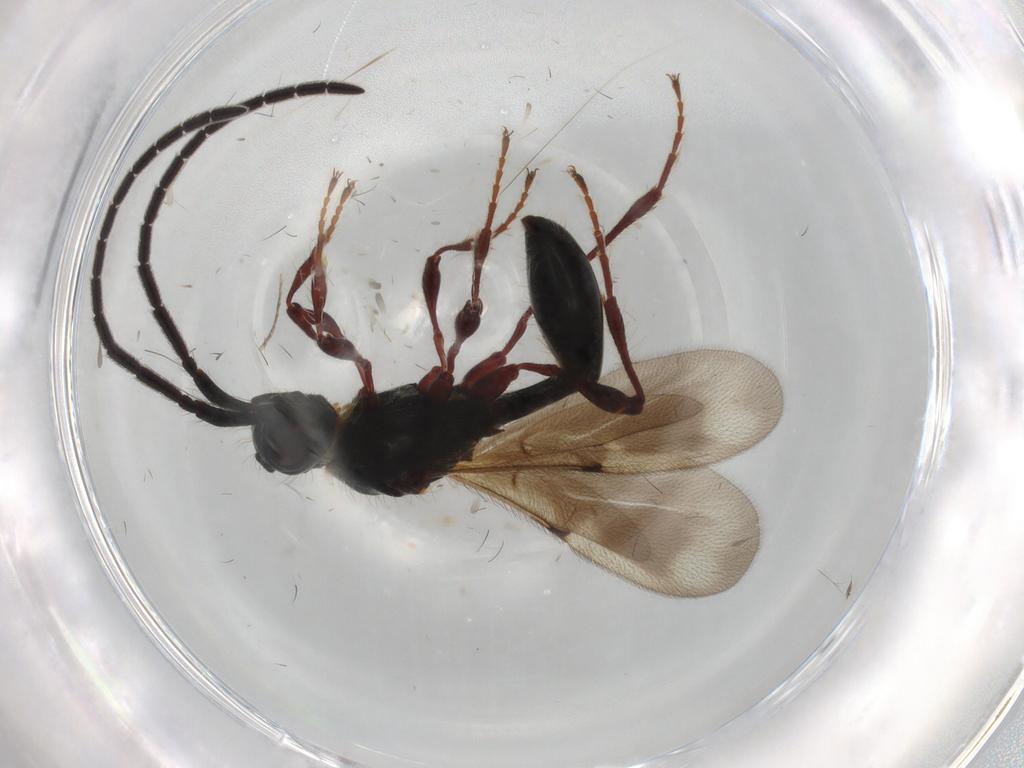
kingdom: Animalia
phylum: Arthropoda
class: Insecta
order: Hymenoptera
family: Diapriidae
